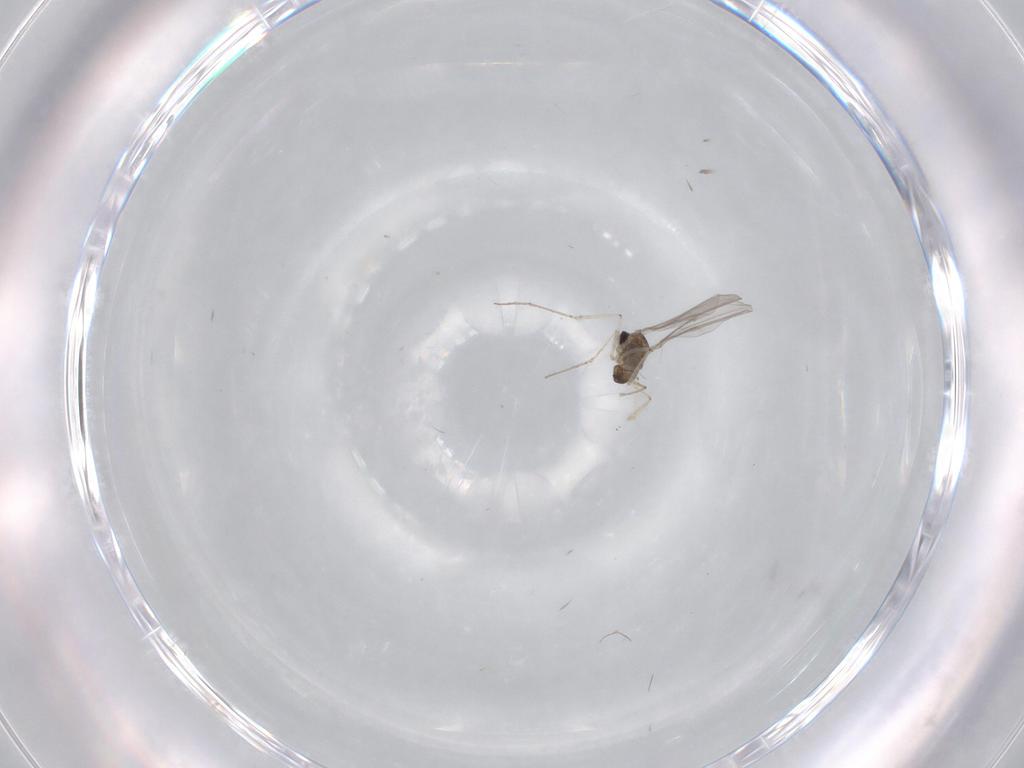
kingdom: Animalia
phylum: Arthropoda
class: Insecta
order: Diptera
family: Cecidomyiidae
